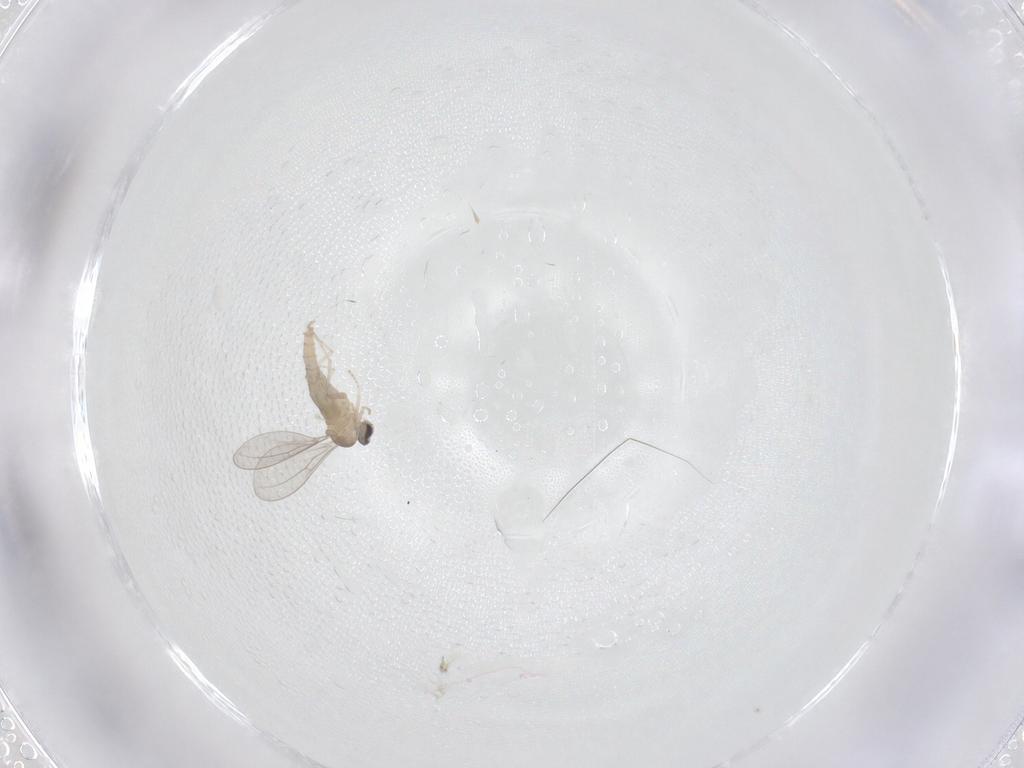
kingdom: Animalia
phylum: Arthropoda
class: Insecta
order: Diptera
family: Cecidomyiidae
